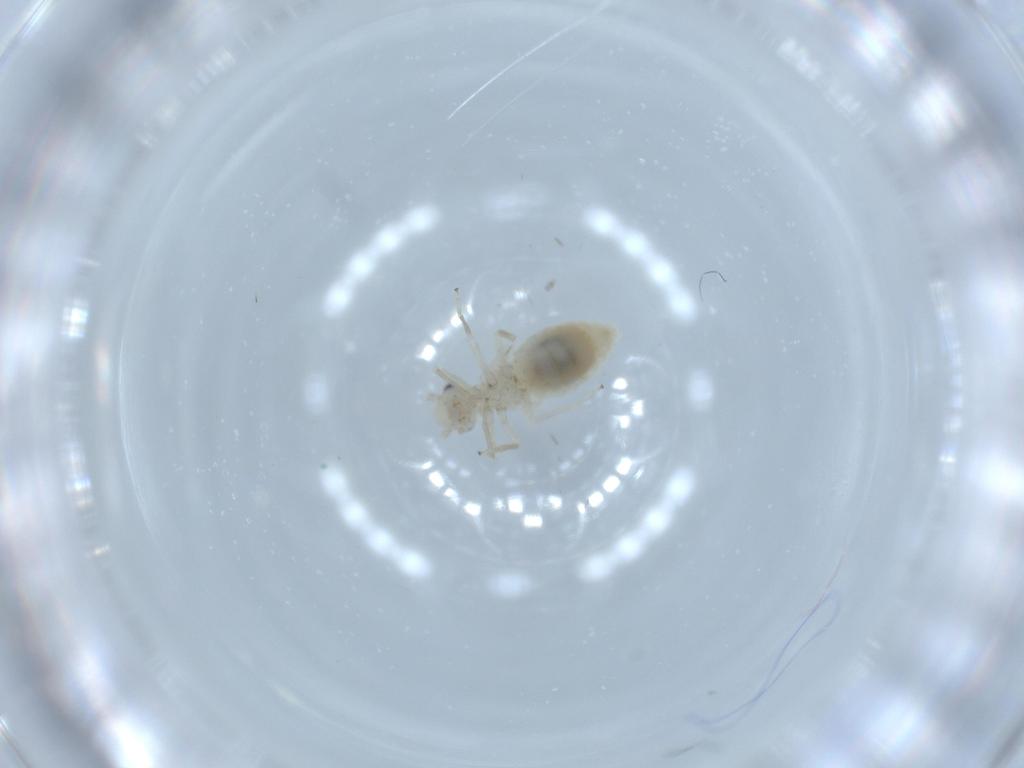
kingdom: Animalia
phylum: Arthropoda
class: Insecta
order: Psocodea
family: Caeciliusidae
